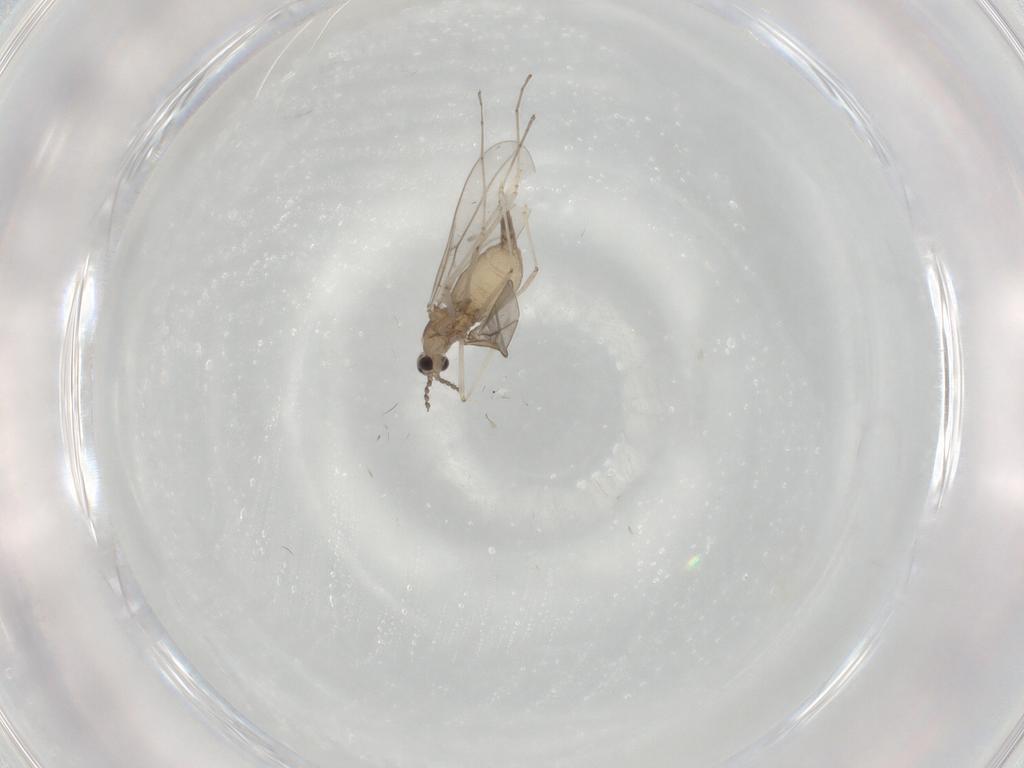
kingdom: Animalia
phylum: Arthropoda
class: Insecta
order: Diptera
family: Cecidomyiidae
